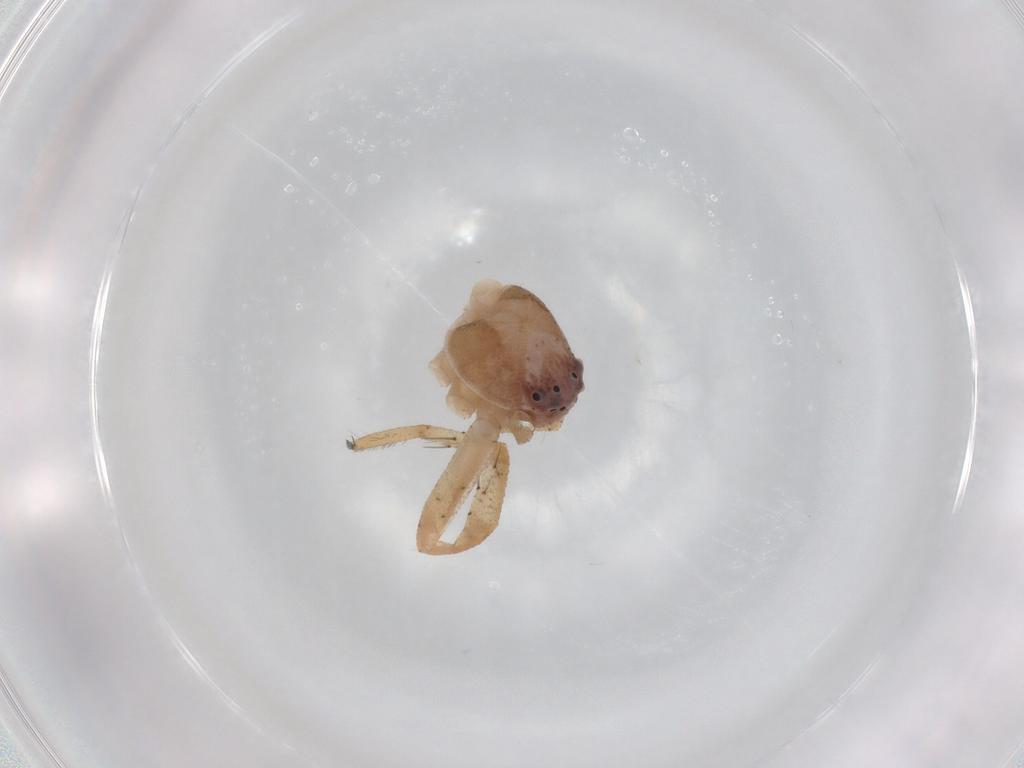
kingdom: Animalia
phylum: Arthropoda
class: Arachnida
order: Araneae
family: Philodromidae
